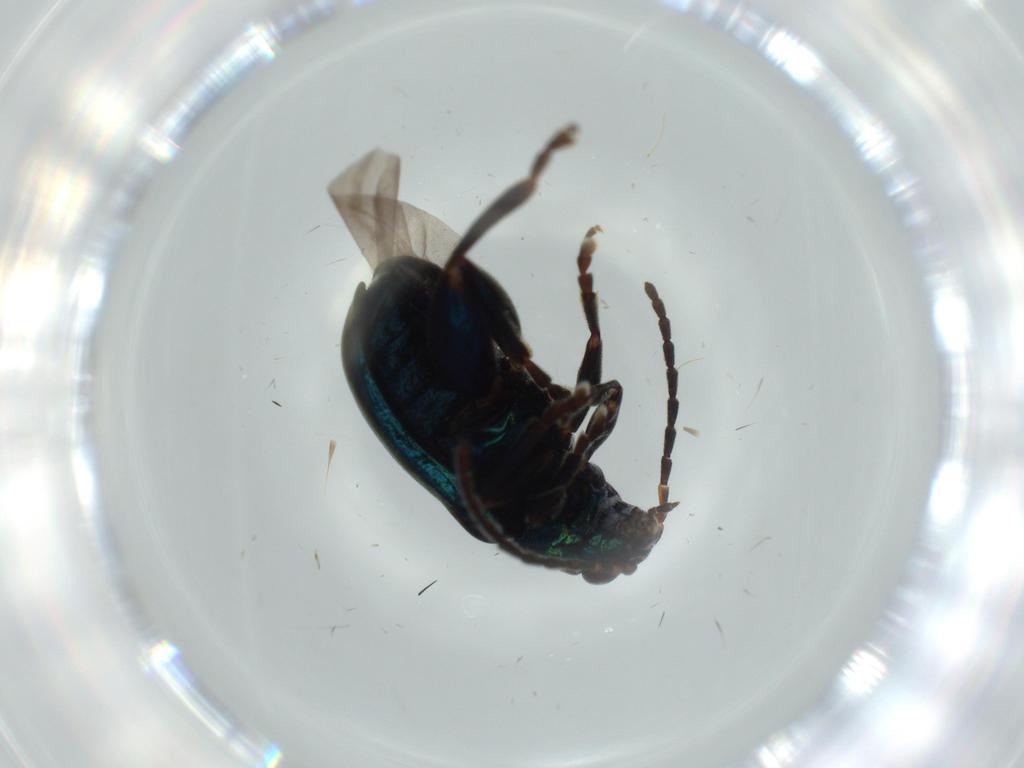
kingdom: Animalia
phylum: Arthropoda
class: Insecta
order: Coleoptera
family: Chrysomelidae
